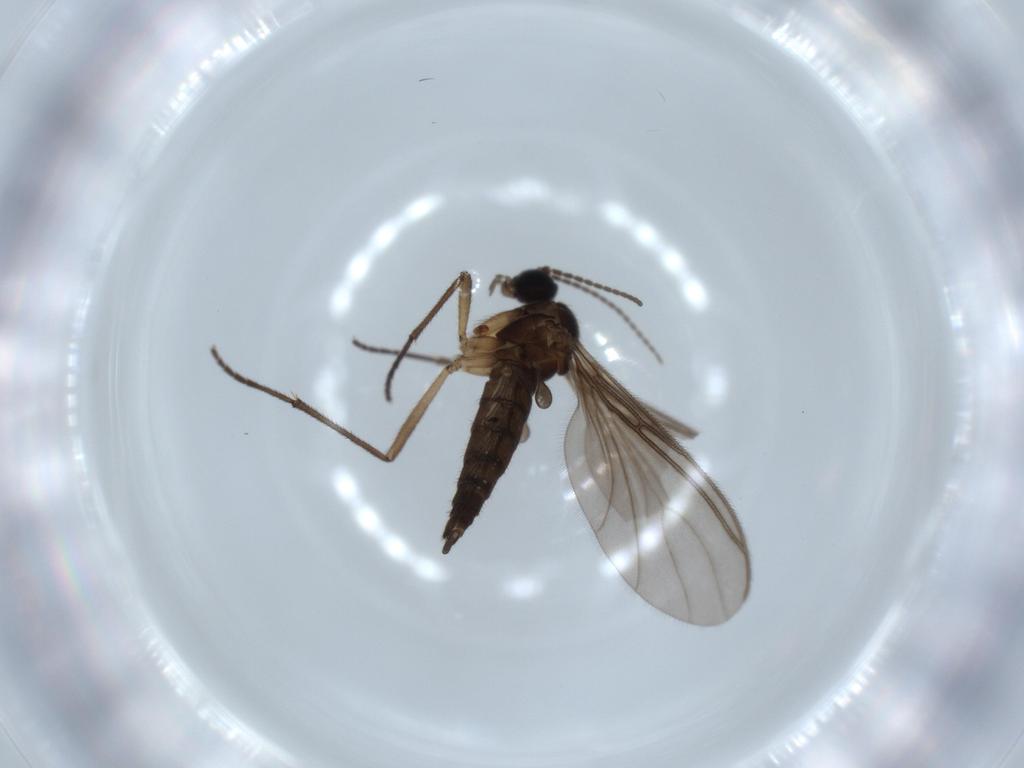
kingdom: Animalia
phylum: Arthropoda
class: Insecta
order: Diptera
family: Sciaridae
